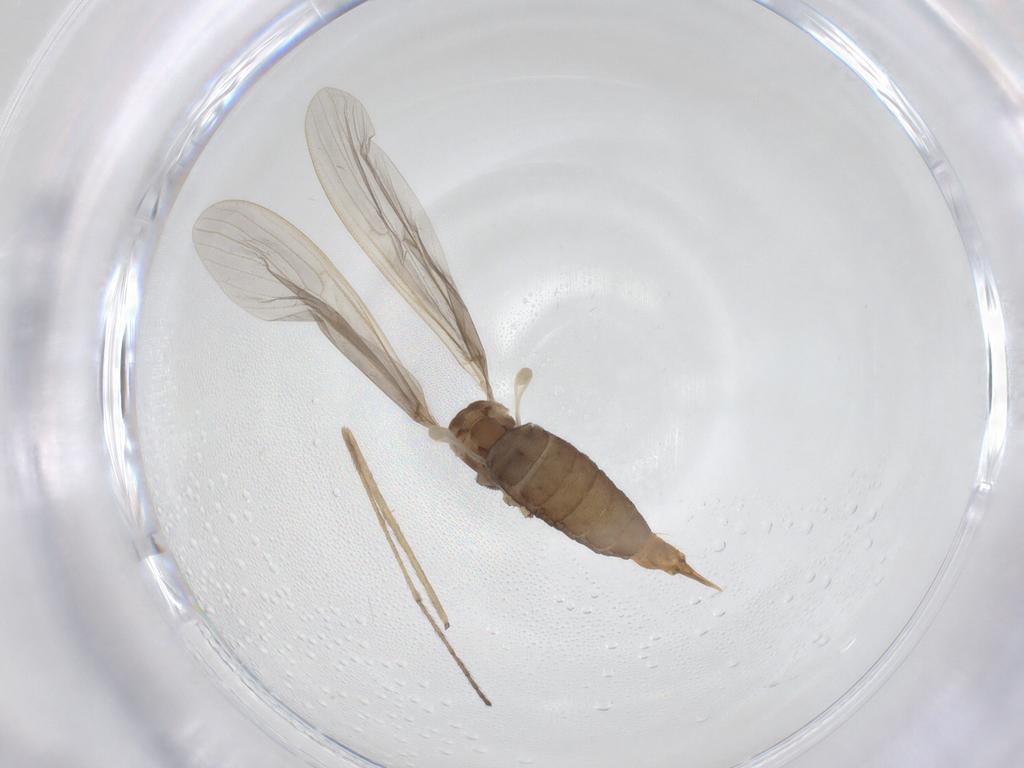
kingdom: Animalia
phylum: Arthropoda
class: Insecta
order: Diptera
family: Limoniidae
